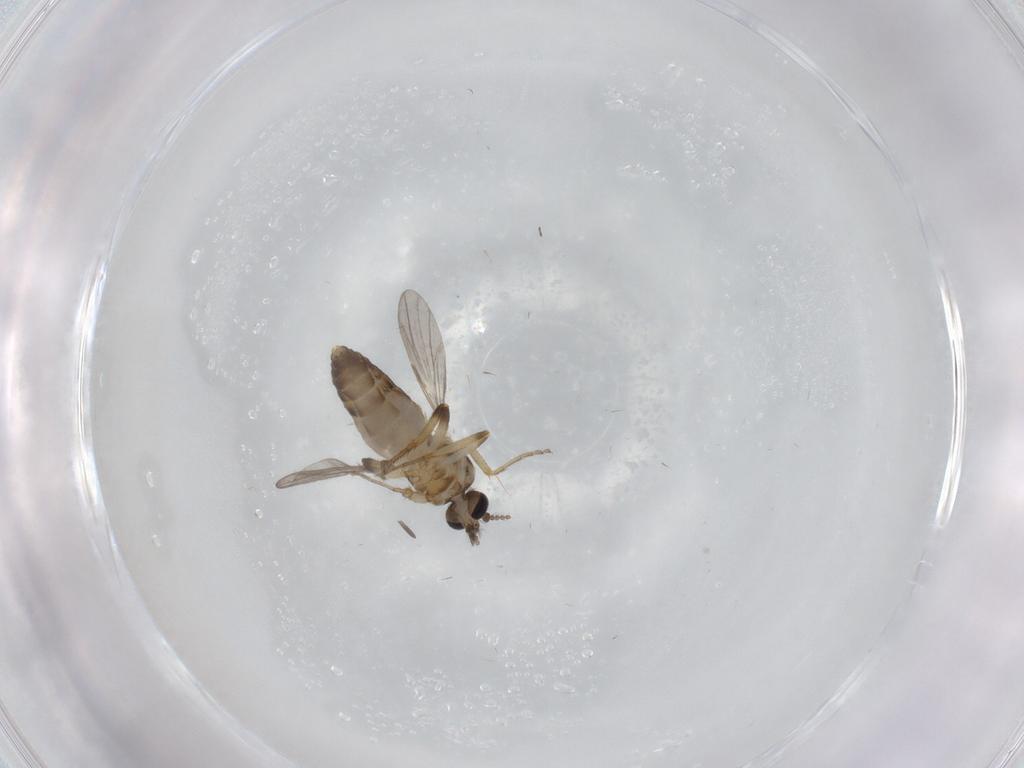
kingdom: Animalia
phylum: Arthropoda
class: Insecta
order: Diptera
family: Ceratopogonidae
